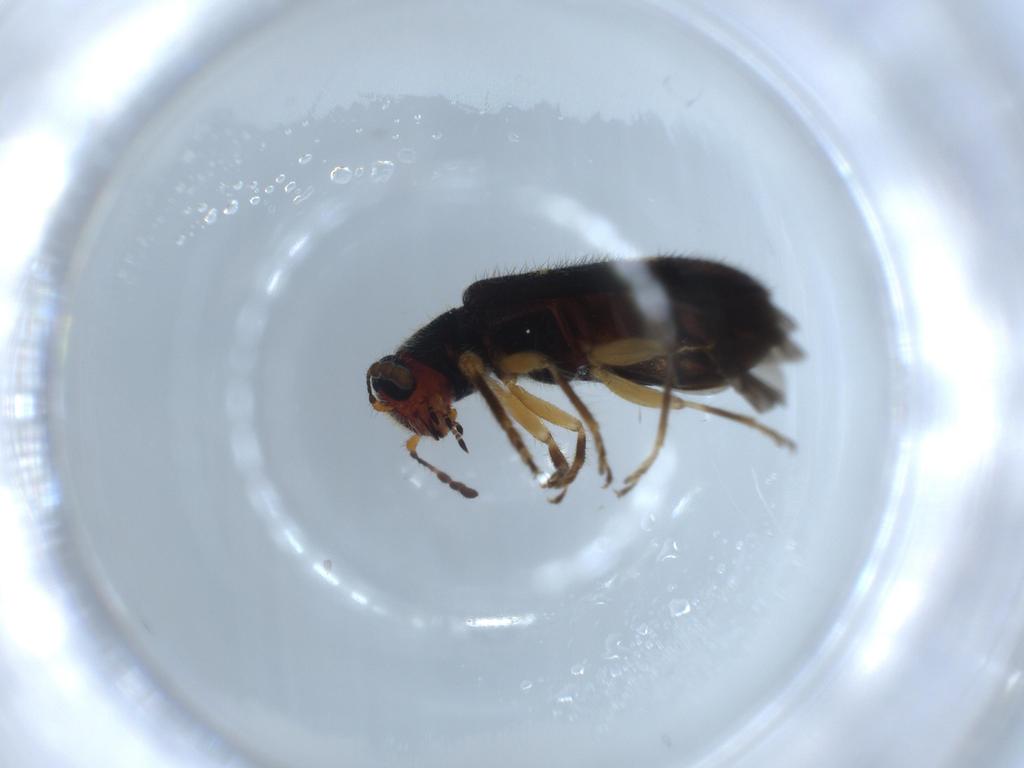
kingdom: Animalia
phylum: Arthropoda
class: Insecta
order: Coleoptera
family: Cleridae
